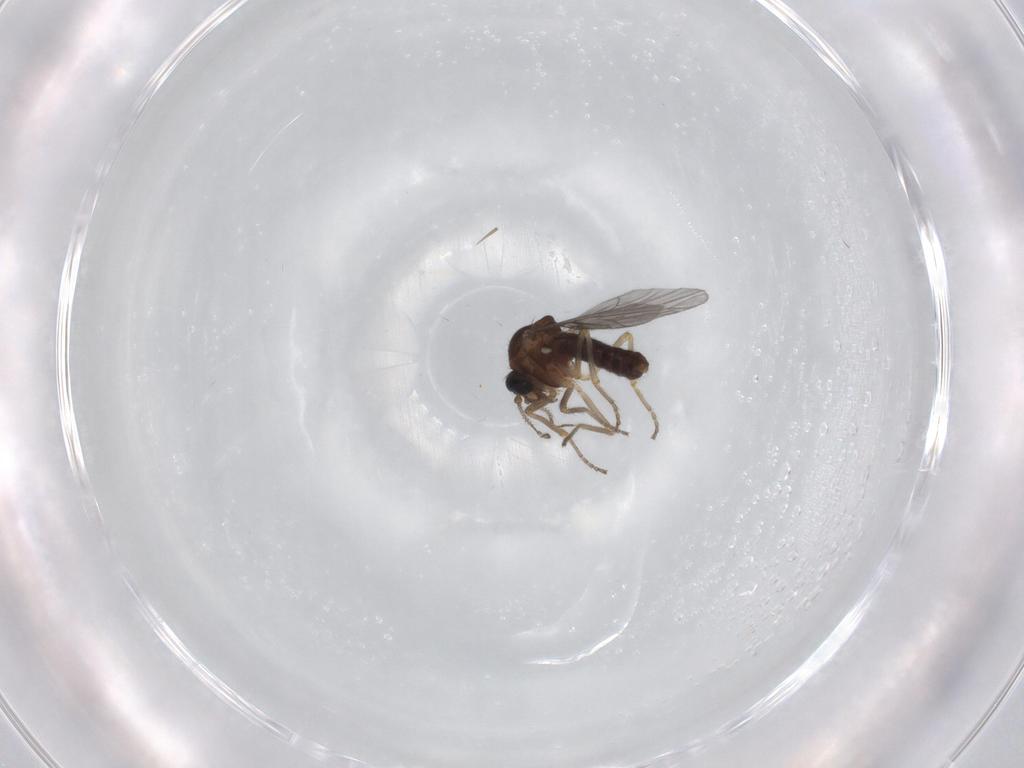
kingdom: Animalia
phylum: Arthropoda
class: Insecta
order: Diptera
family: Ceratopogonidae
